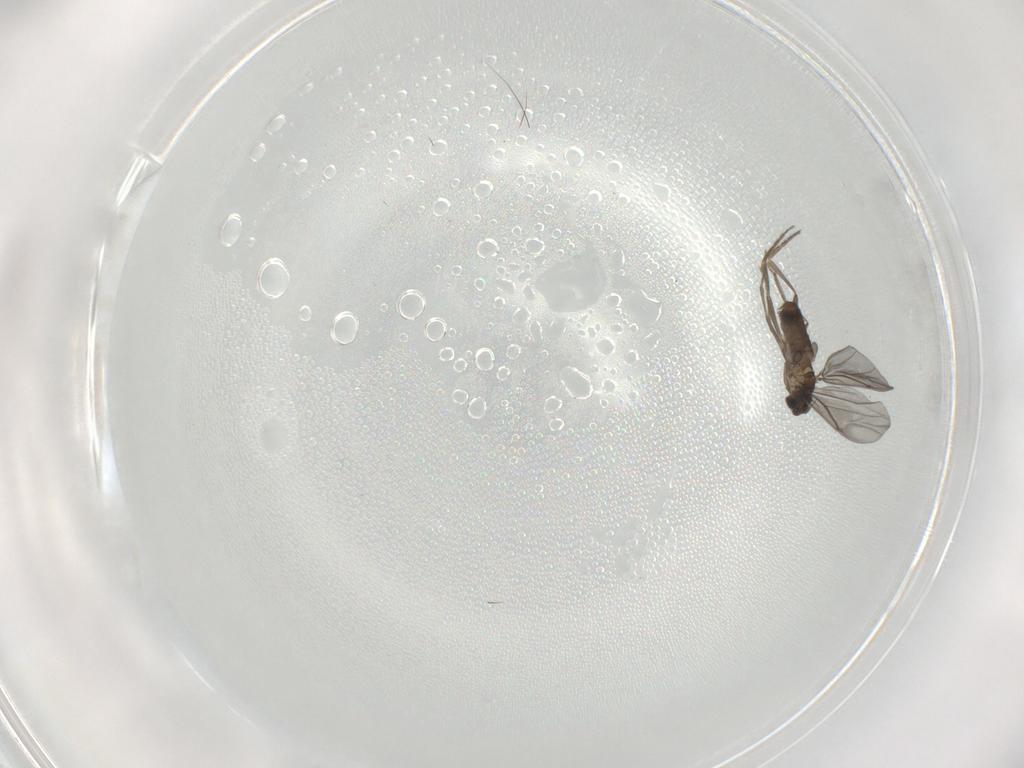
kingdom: Animalia
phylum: Arthropoda
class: Insecta
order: Diptera
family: Phoridae
